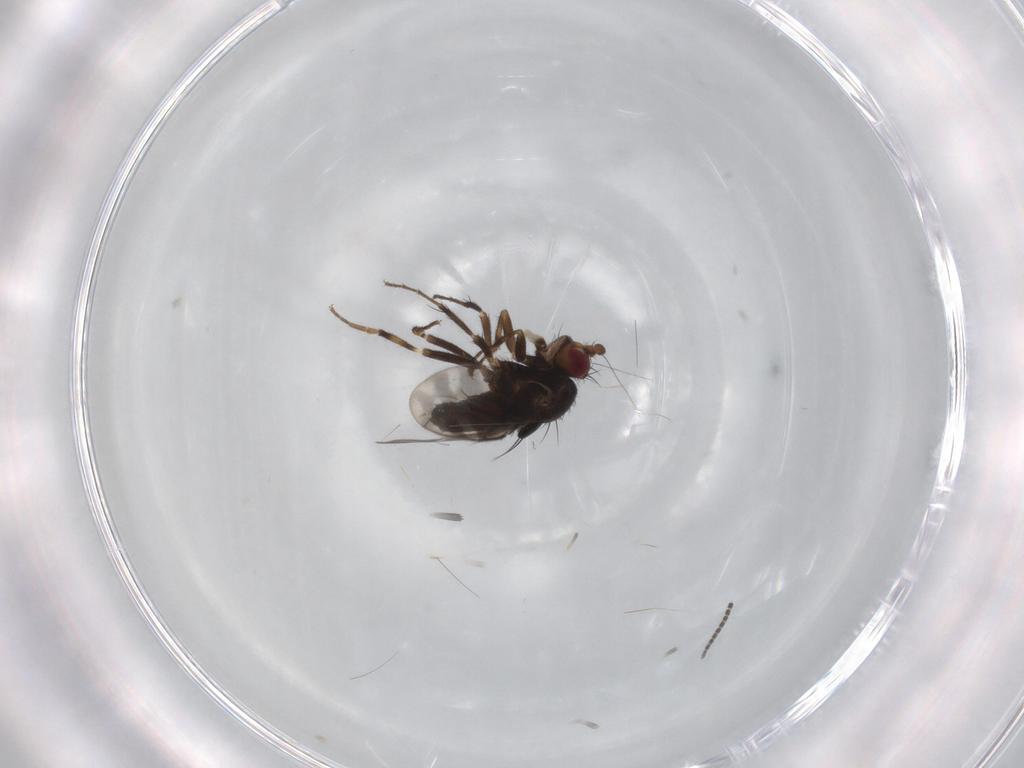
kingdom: Animalia
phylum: Arthropoda
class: Insecta
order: Diptera
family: Sphaeroceridae
